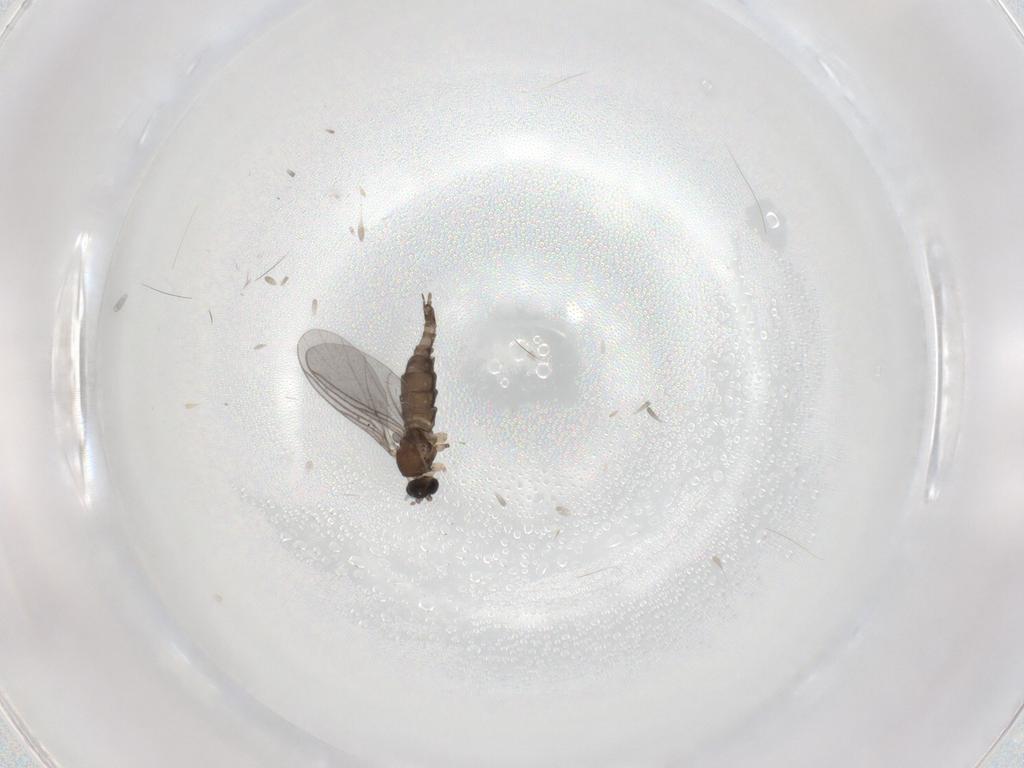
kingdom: Animalia
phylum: Arthropoda
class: Insecta
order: Diptera
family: Sciaridae
